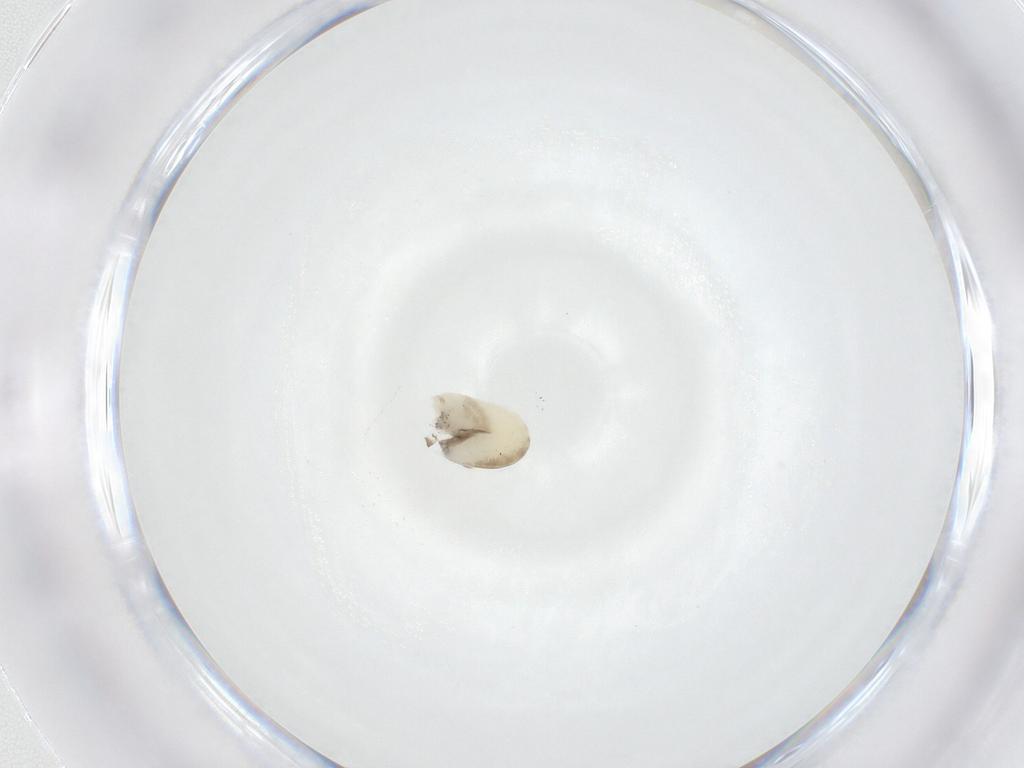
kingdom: Animalia
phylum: Arthropoda
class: Insecta
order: Hymenoptera
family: Dryinidae
